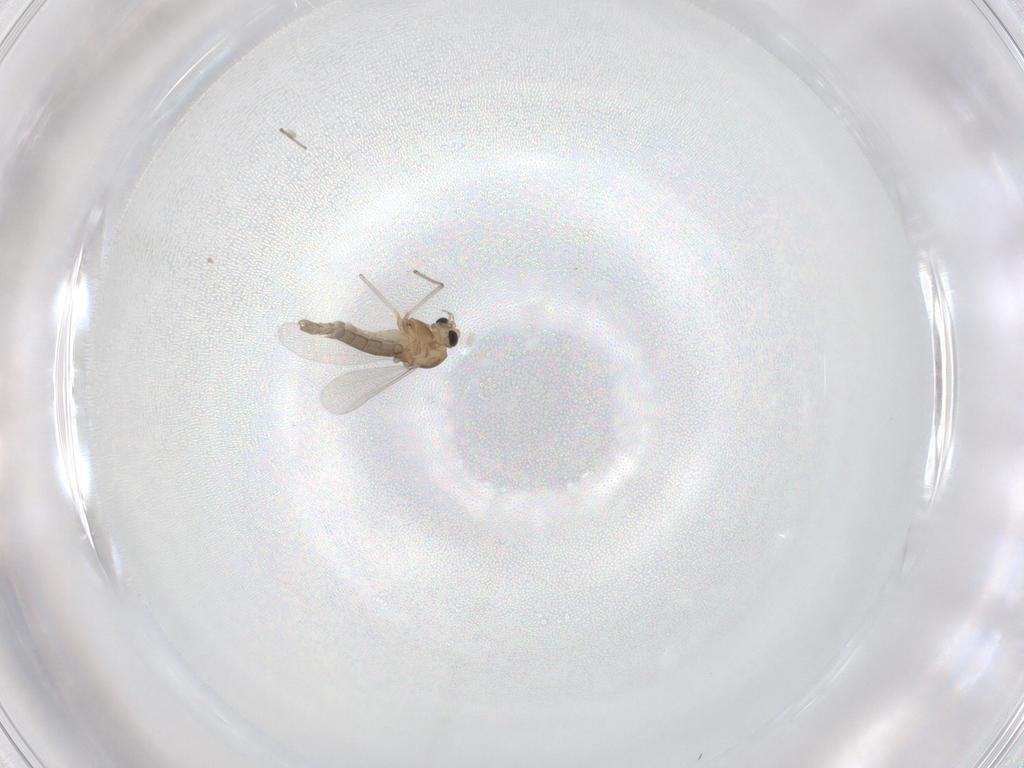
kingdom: Animalia
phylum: Arthropoda
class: Insecta
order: Diptera
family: Chironomidae
